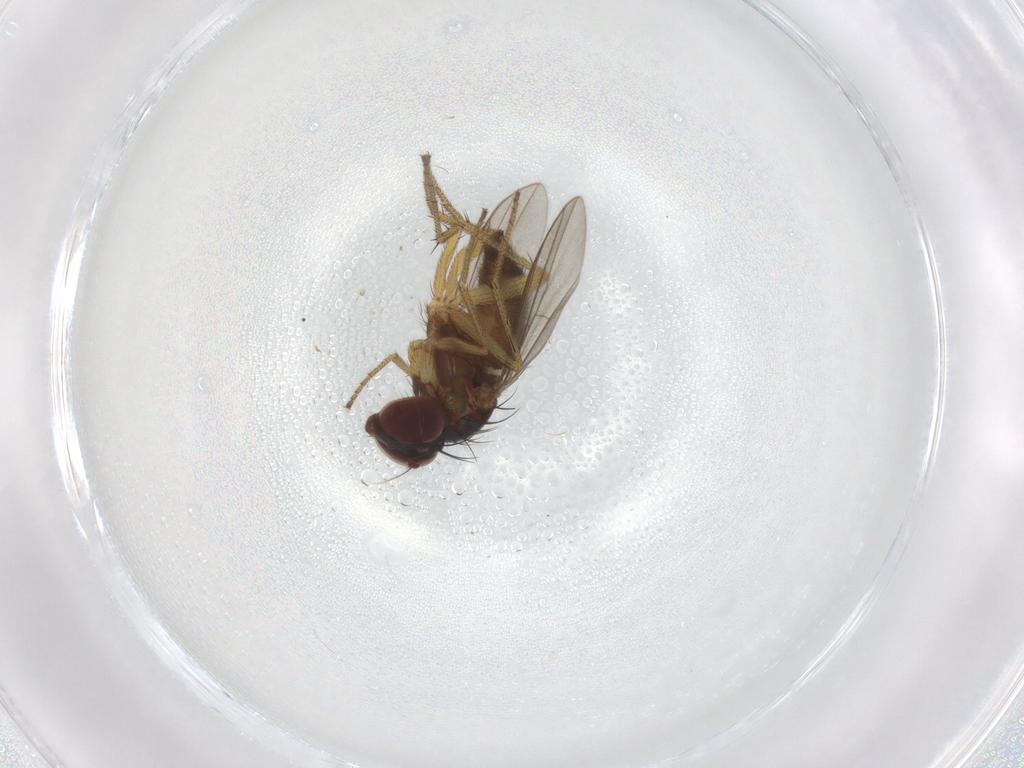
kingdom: Animalia
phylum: Arthropoda
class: Insecta
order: Diptera
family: Dolichopodidae
